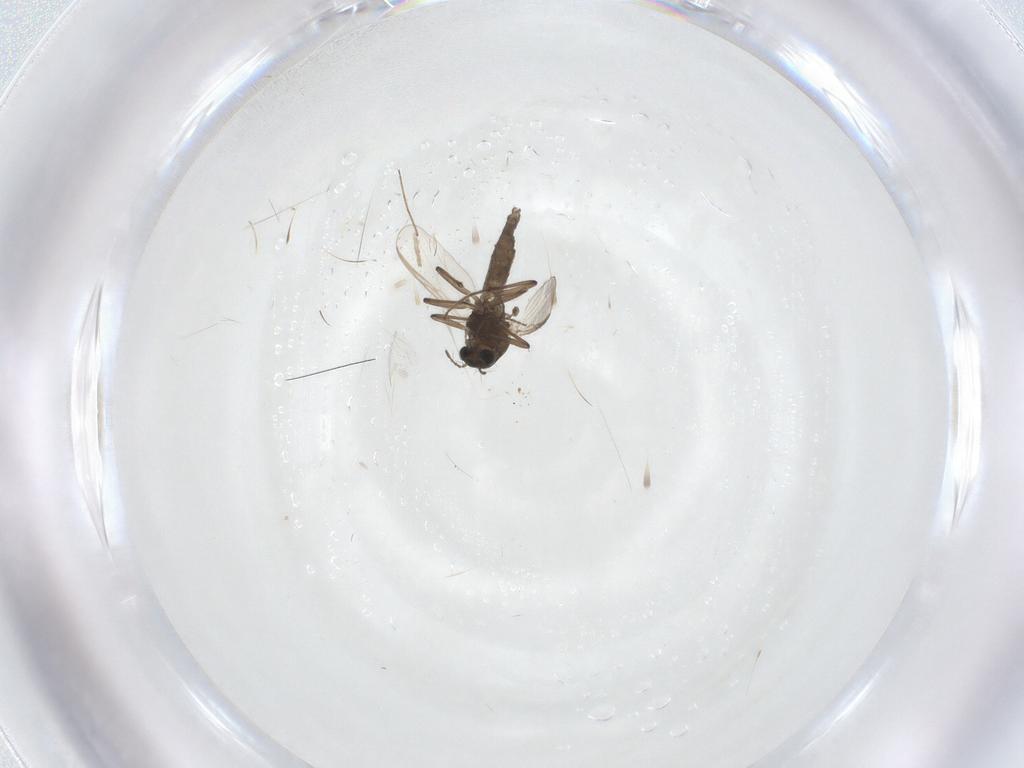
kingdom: Animalia
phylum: Arthropoda
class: Insecta
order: Diptera
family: Chironomidae
